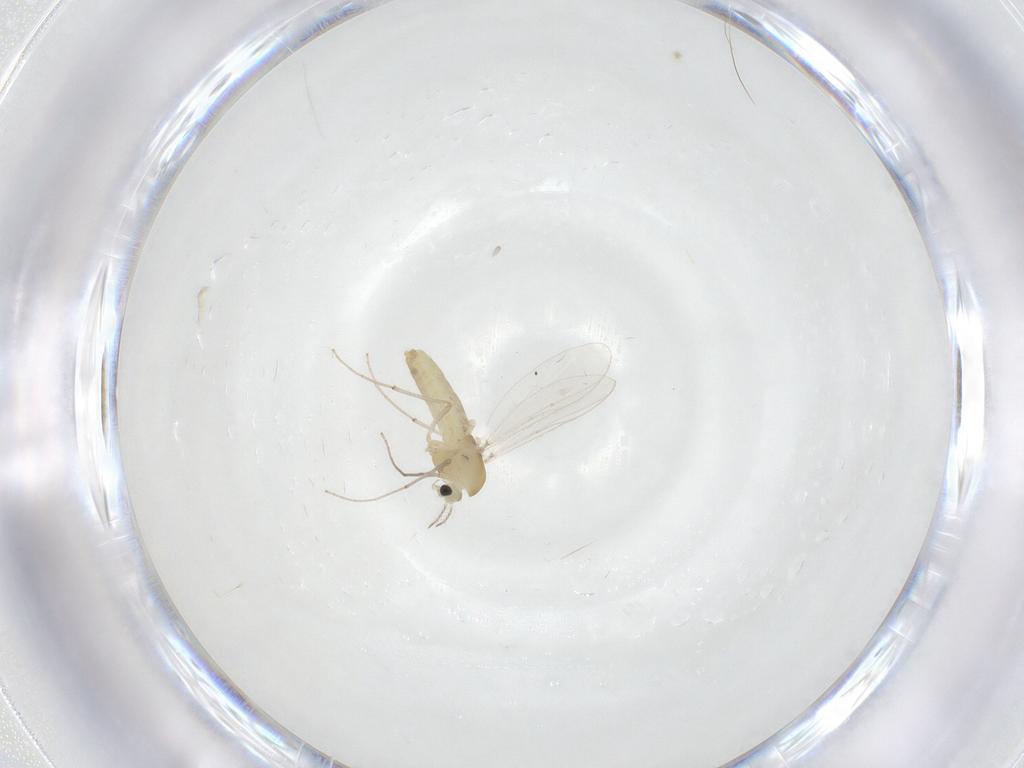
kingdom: Animalia
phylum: Arthropoda
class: Insecta
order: Diptera
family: Chironomidae
